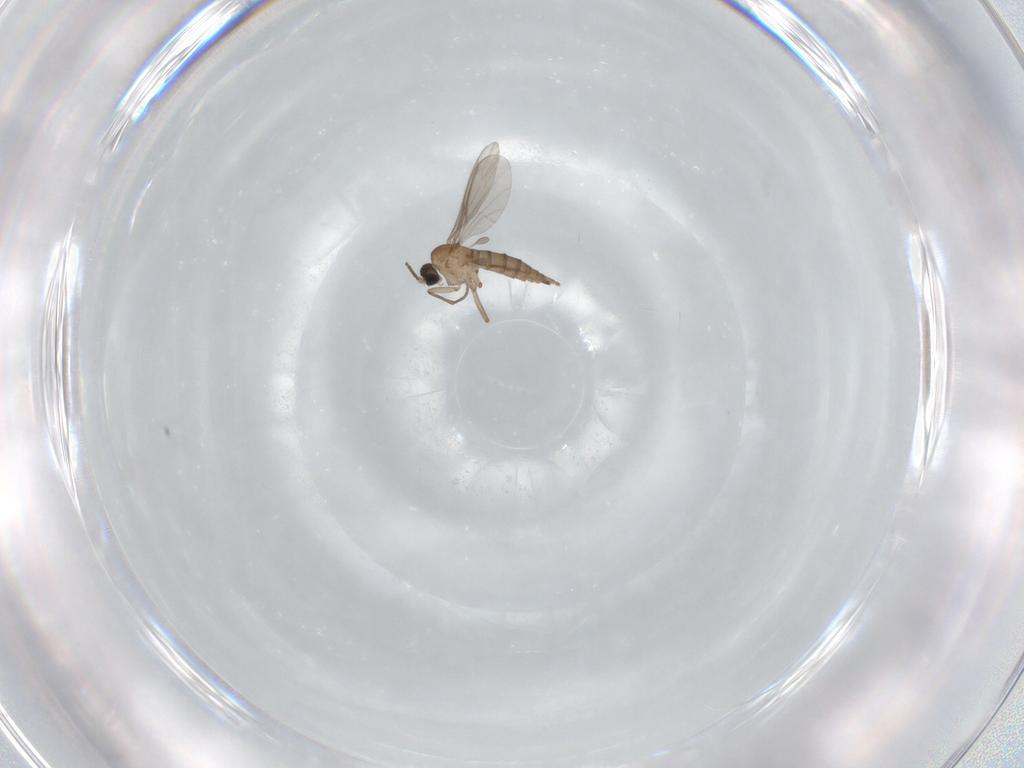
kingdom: Animalia
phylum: Arthropoda
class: Insecta
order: Diptera
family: Sciaridae
